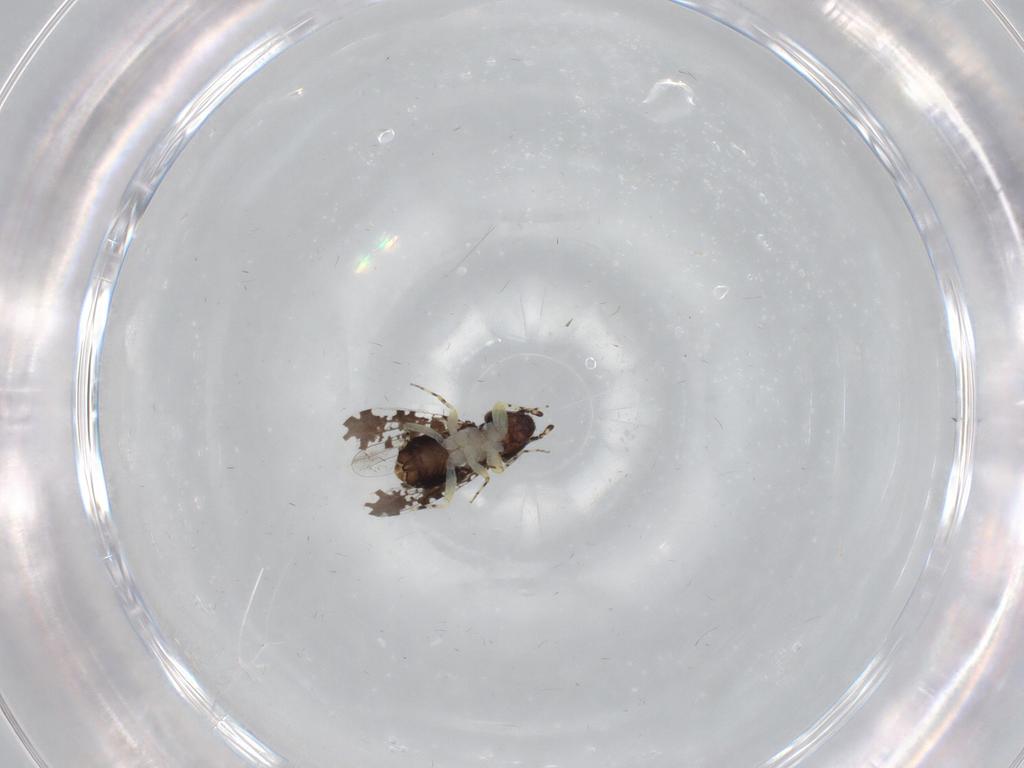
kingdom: Animalia
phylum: Arthropoda
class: Insecta
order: Psocodea
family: Psoquillidae
